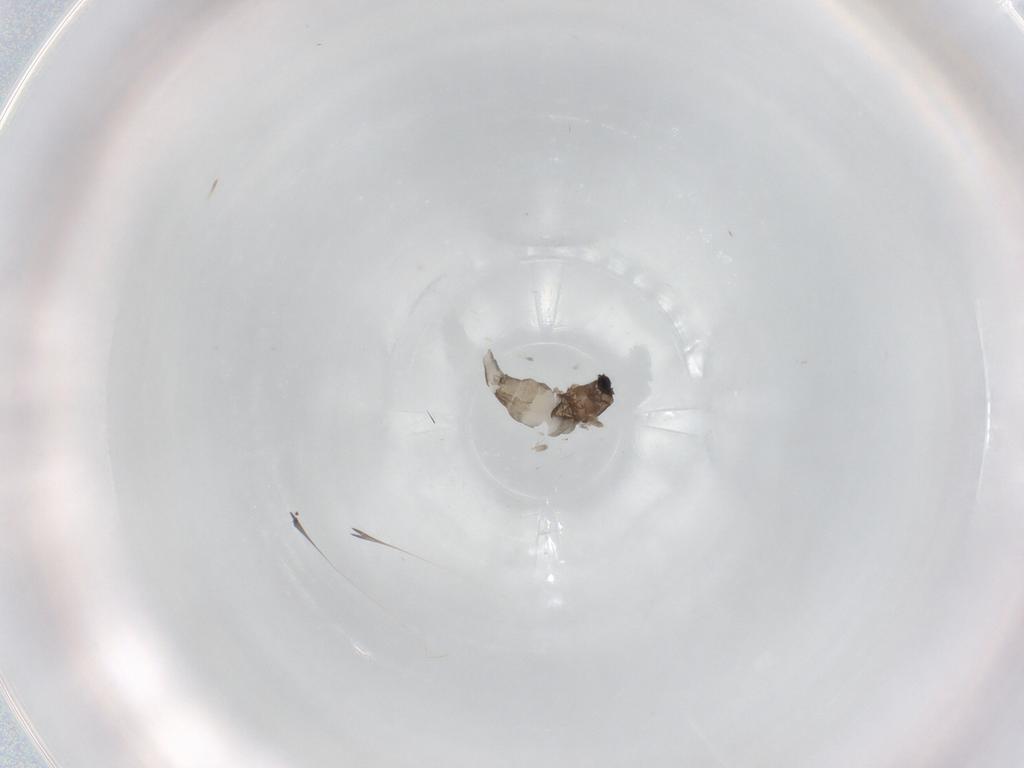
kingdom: Animalia
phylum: Arthropoda
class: Insecta
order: Diptera
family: Cecidomyiidae
